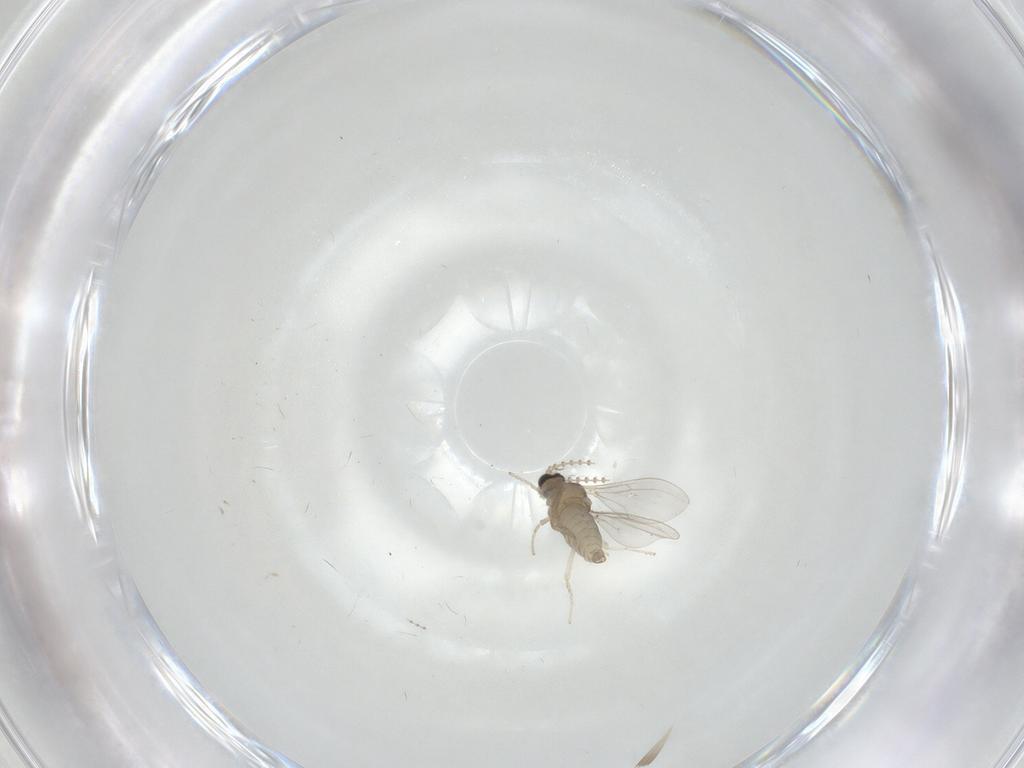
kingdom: Animalia
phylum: Arthropoda
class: Insecta
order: Diptera
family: Cecidomyiidae
